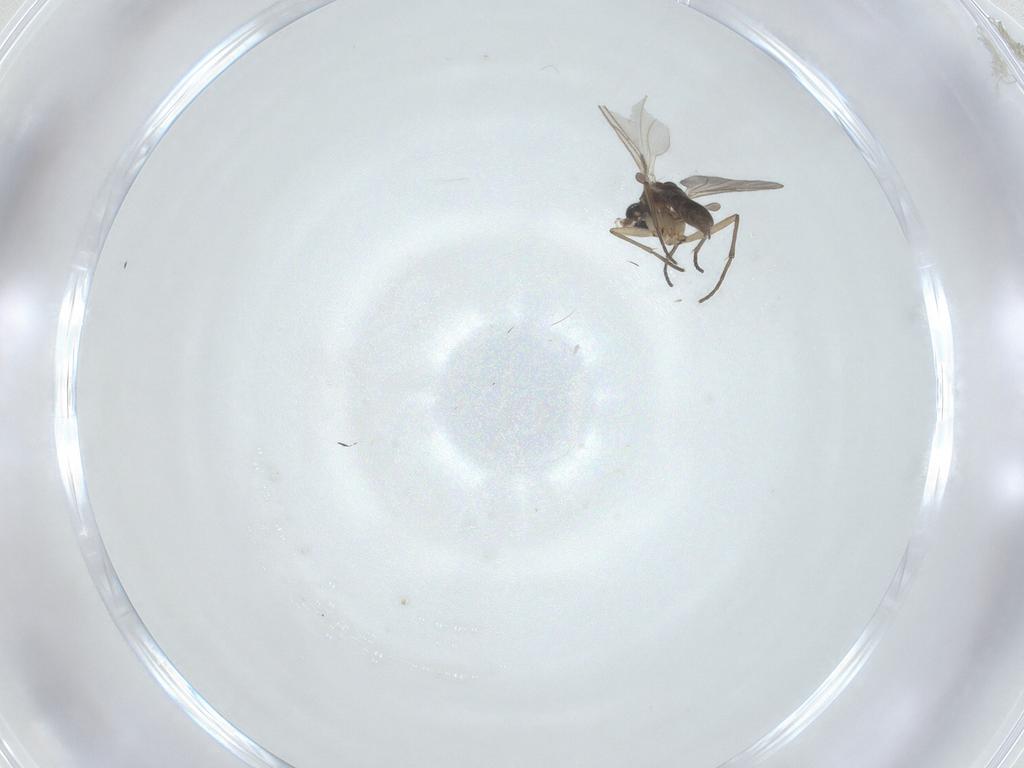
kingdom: Animalia
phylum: Arthropoda
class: Insecta
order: Diptera
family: Sciaridae
